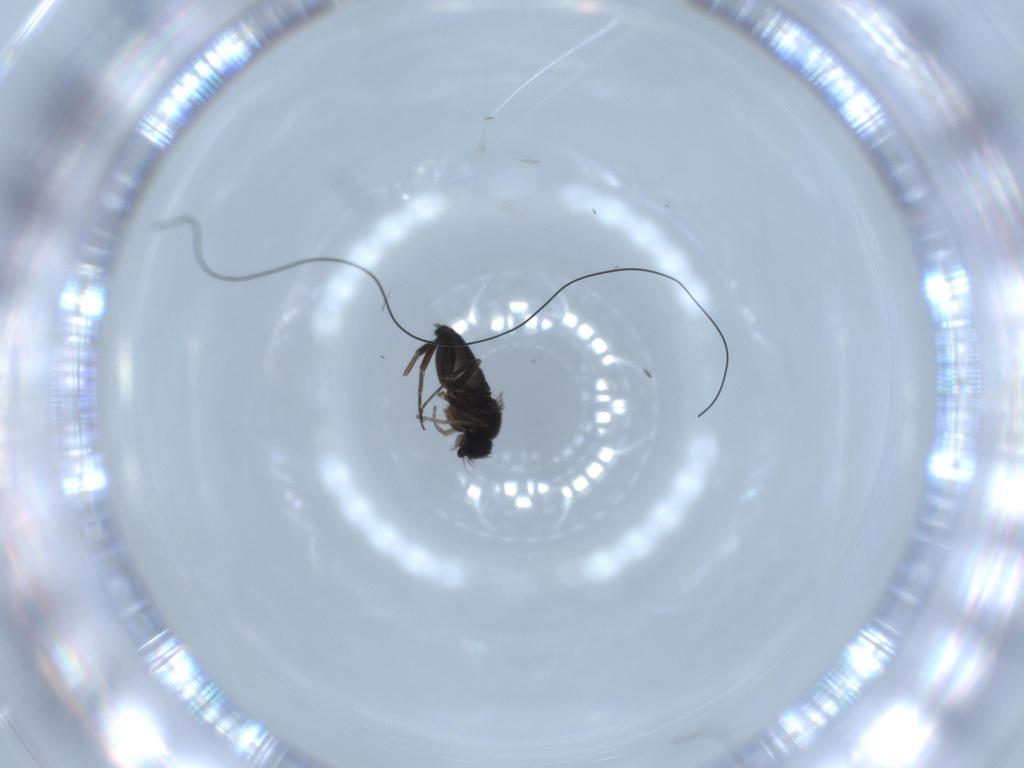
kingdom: Animalia
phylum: Arthropoda
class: Insecta
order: Diptera
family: Phoridae
